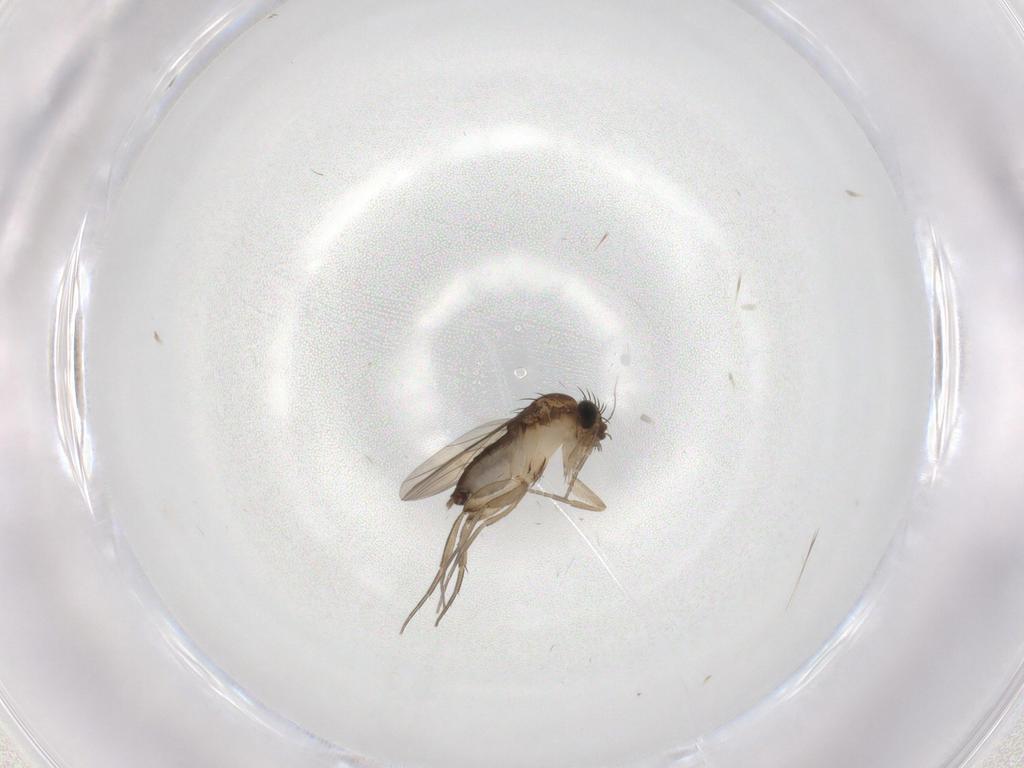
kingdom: Animalia
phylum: Arthropoda
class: Insecta
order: Diptera
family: Phoridae
